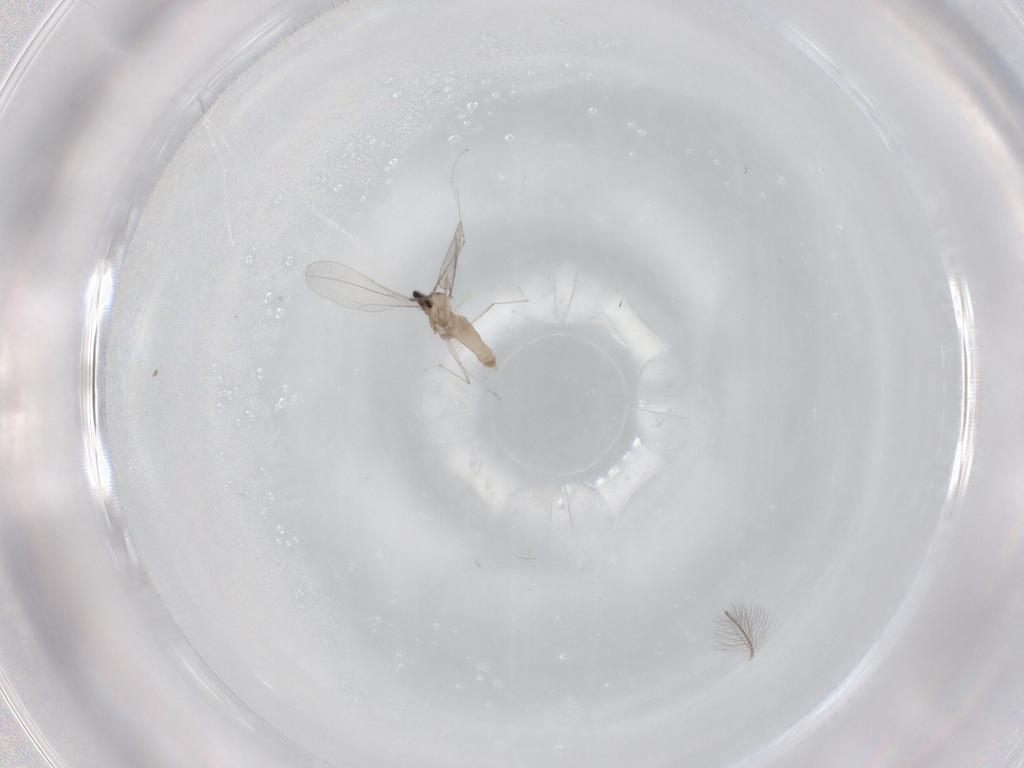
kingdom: Animalia
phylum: Arthropoda
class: Insecta
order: Diptera
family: Cecidomyiidae
